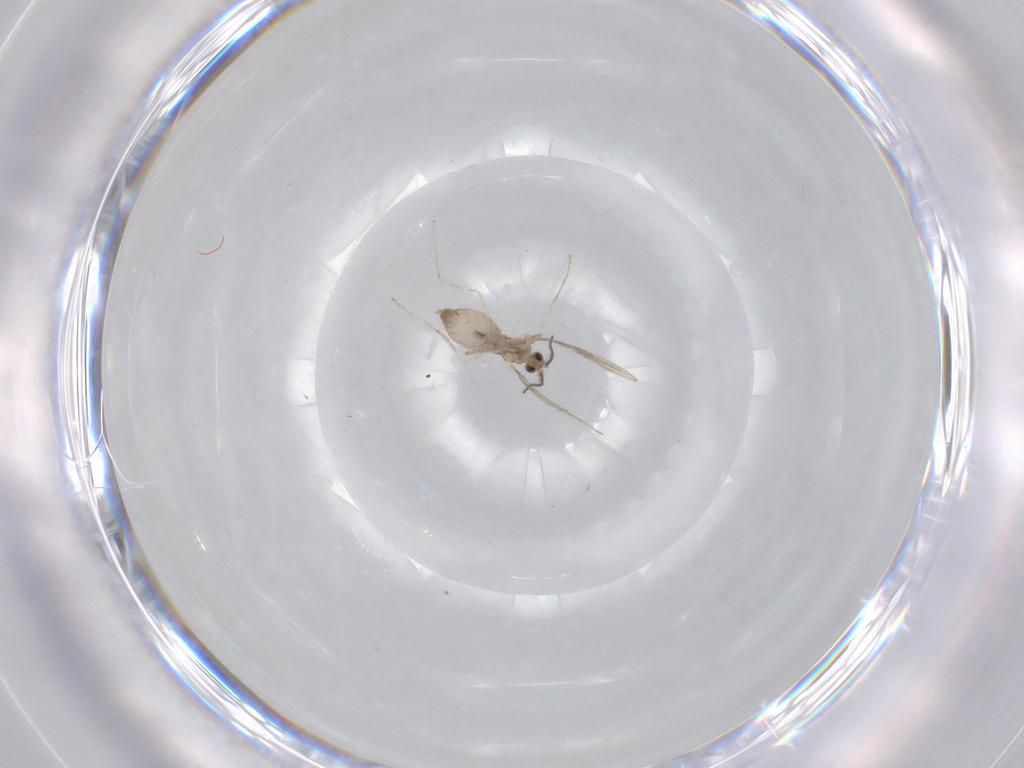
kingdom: Animalia
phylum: Arthropoda
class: Insecta
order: Diptera
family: Cecidomyiidae
